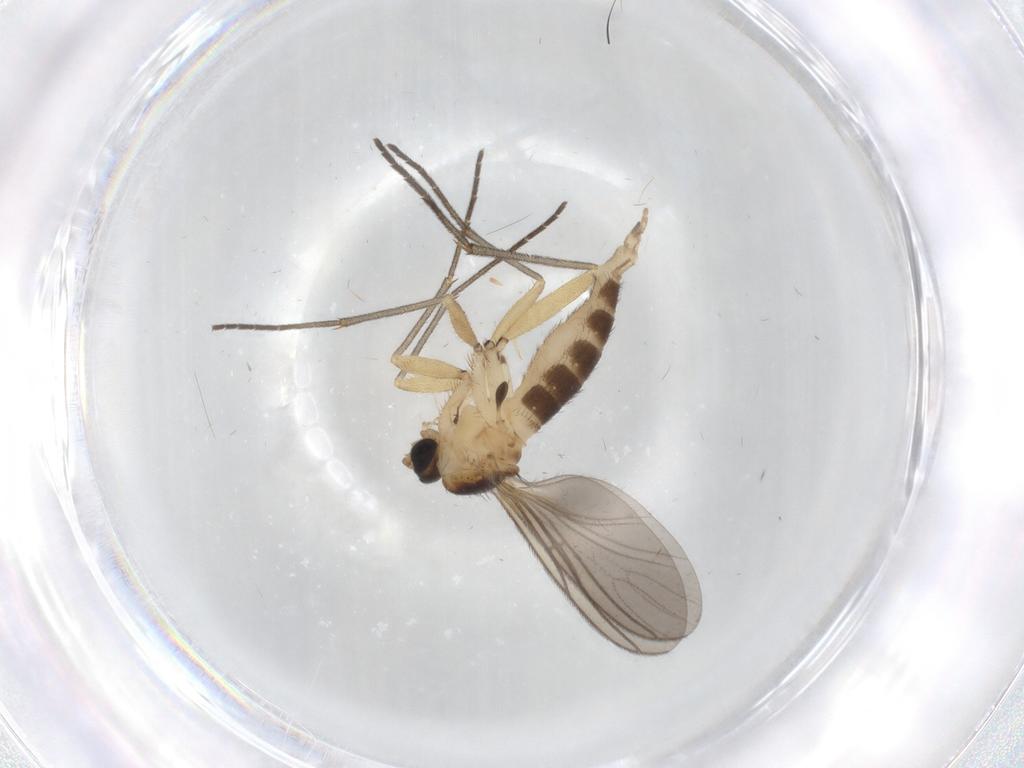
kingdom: Animalia
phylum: Arthropoda
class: Insecta
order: Diptera
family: Sciaridae
